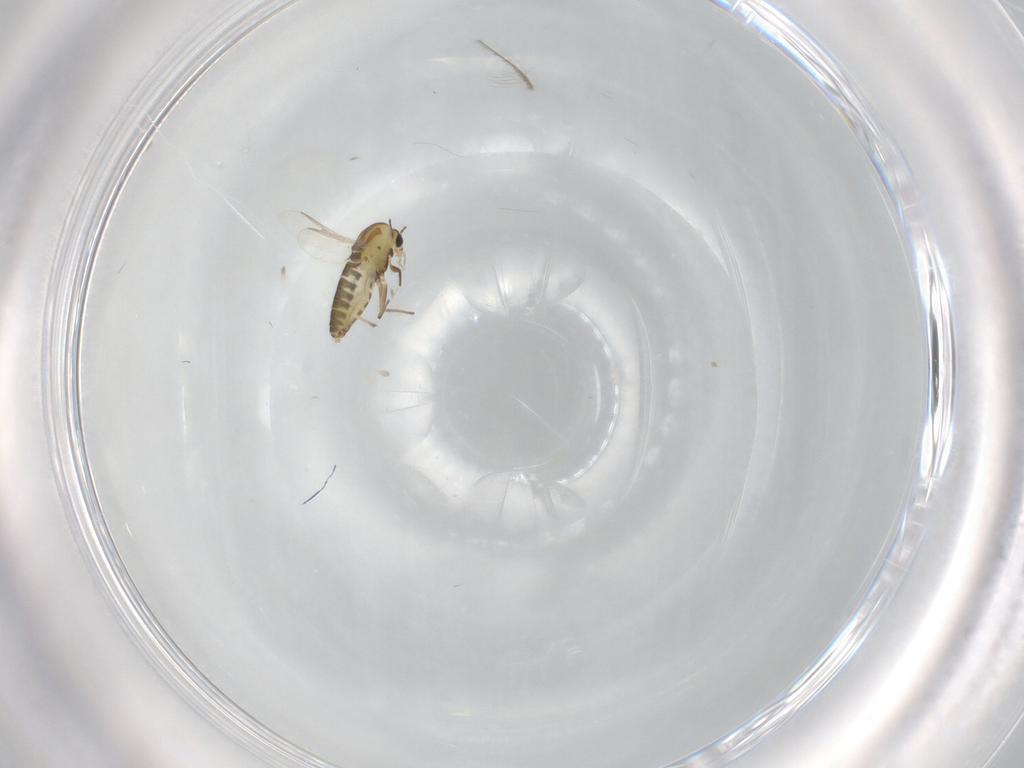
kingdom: Animalia
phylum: Arthropoda
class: Insecta
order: Diptera
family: Chironomidae
